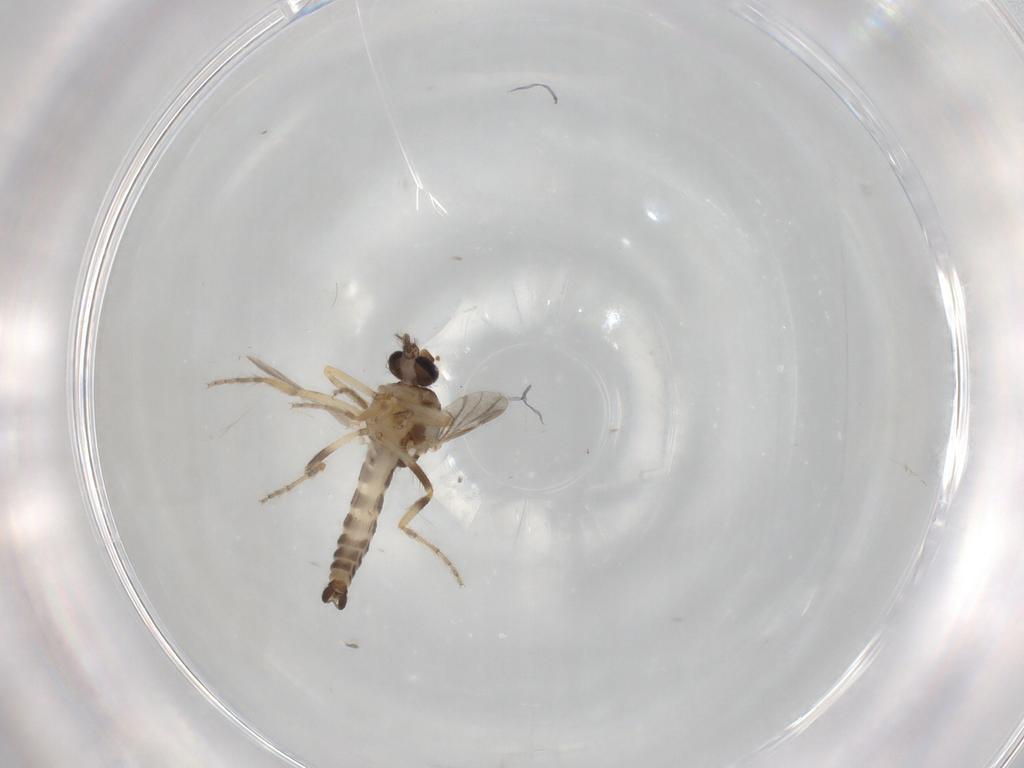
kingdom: Animalia
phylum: Arthropoda
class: Insecta
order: Diptera
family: Ceratopogonidae
